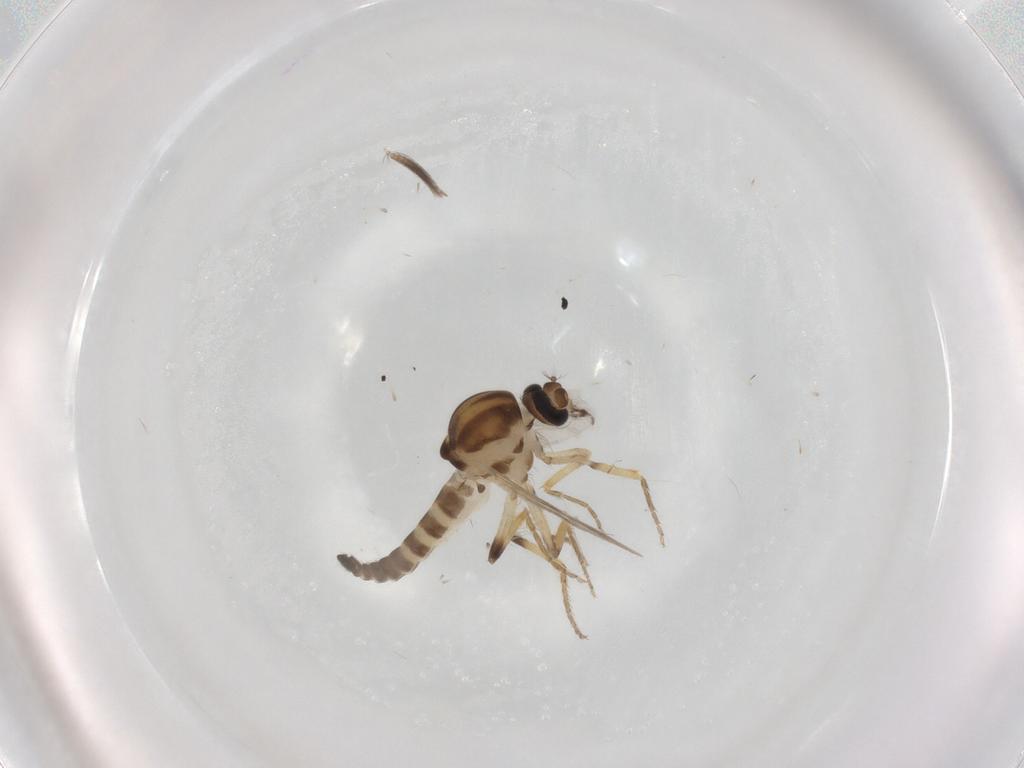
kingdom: Animalia
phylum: Arthropoda
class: Insecta
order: Diptera
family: Ceratopogonidae
